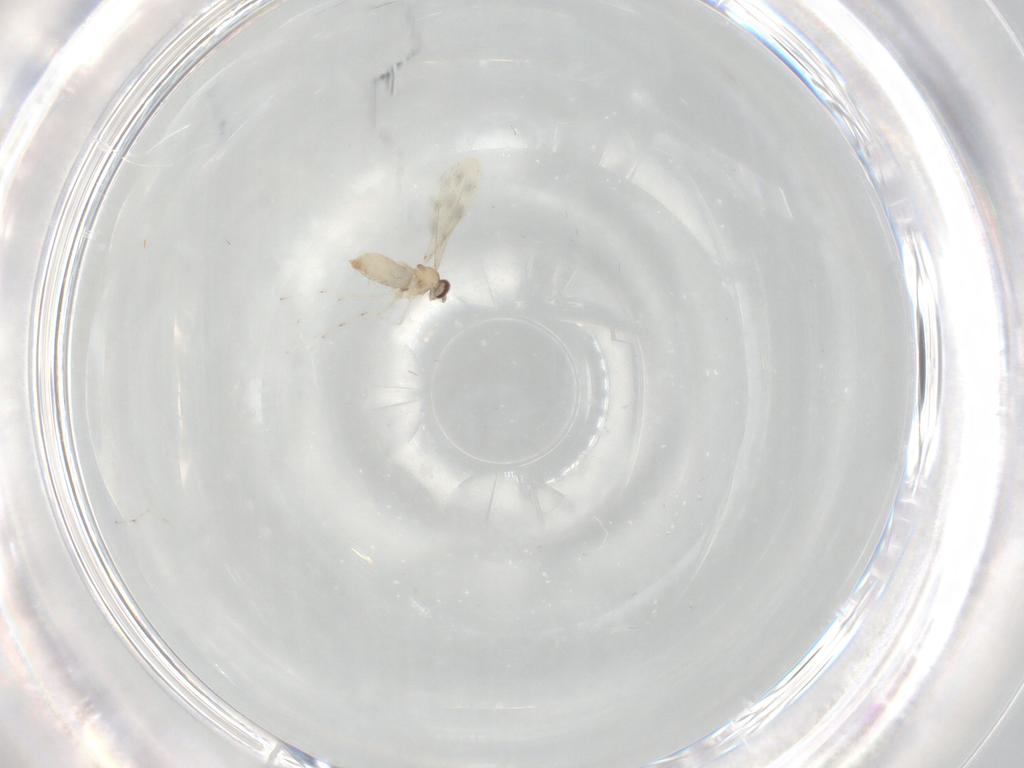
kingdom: Animalia
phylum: Arthropoda
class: Insecta
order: Diptera
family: Cecidomyiidae
